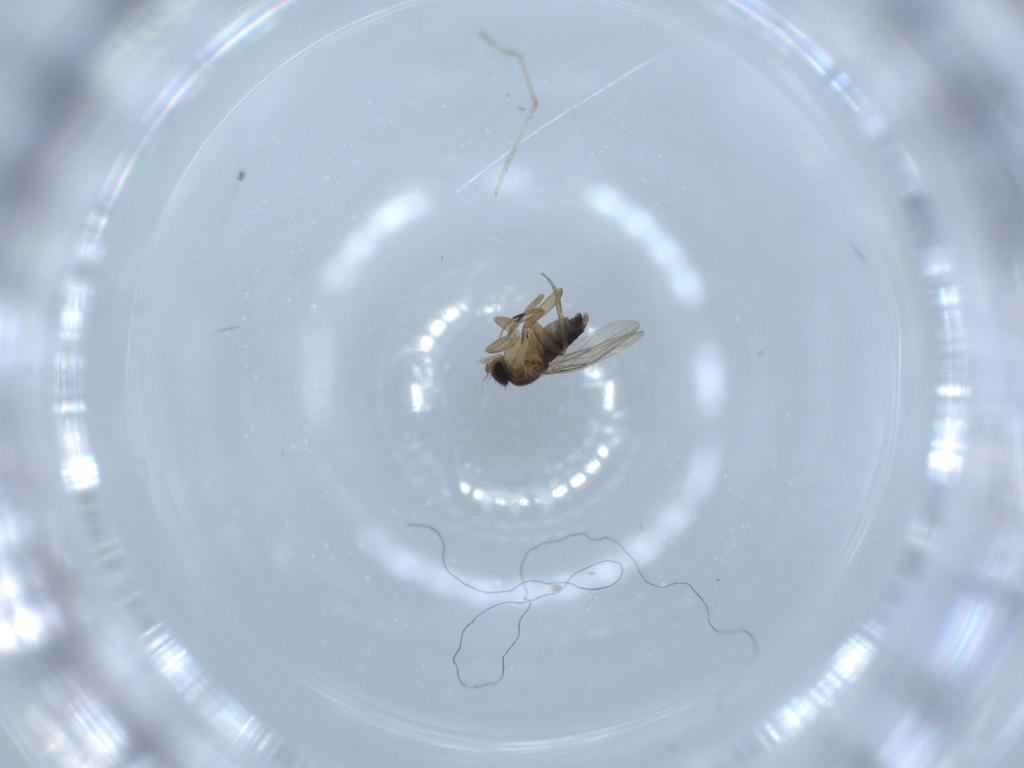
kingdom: Animalia
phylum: Arthropoda
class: Insecta
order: Diptera
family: Cecidomyiidae
